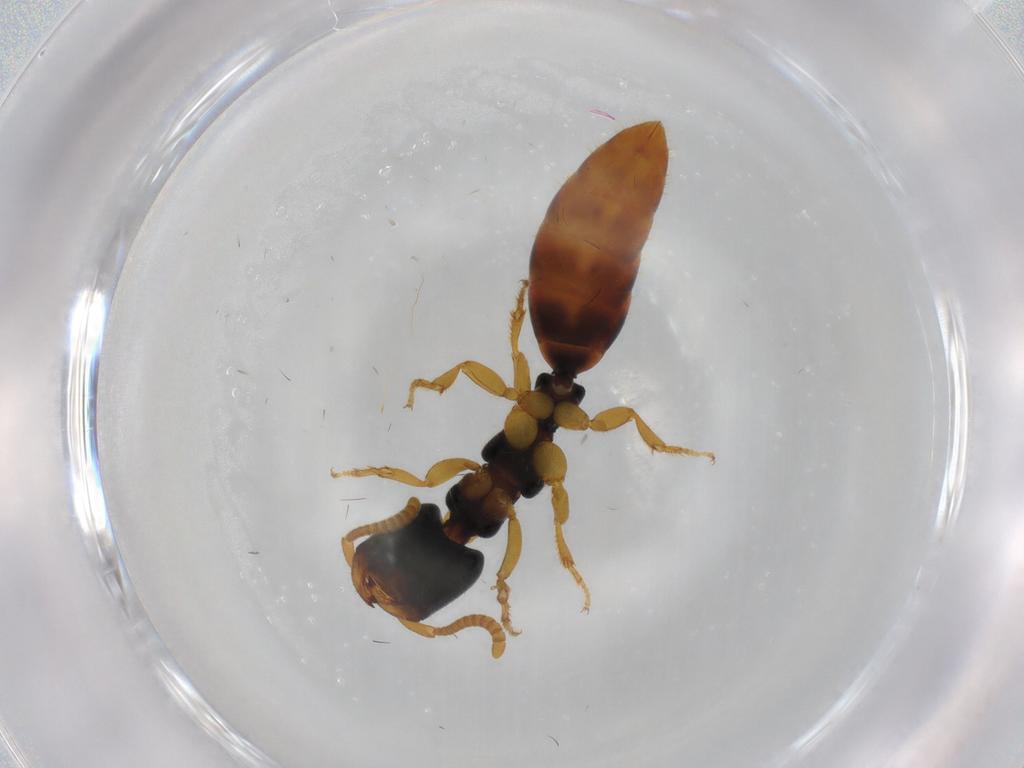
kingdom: Animalia
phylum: Arthropoda
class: Insecta
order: Hymenoptera
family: Bethylidae
